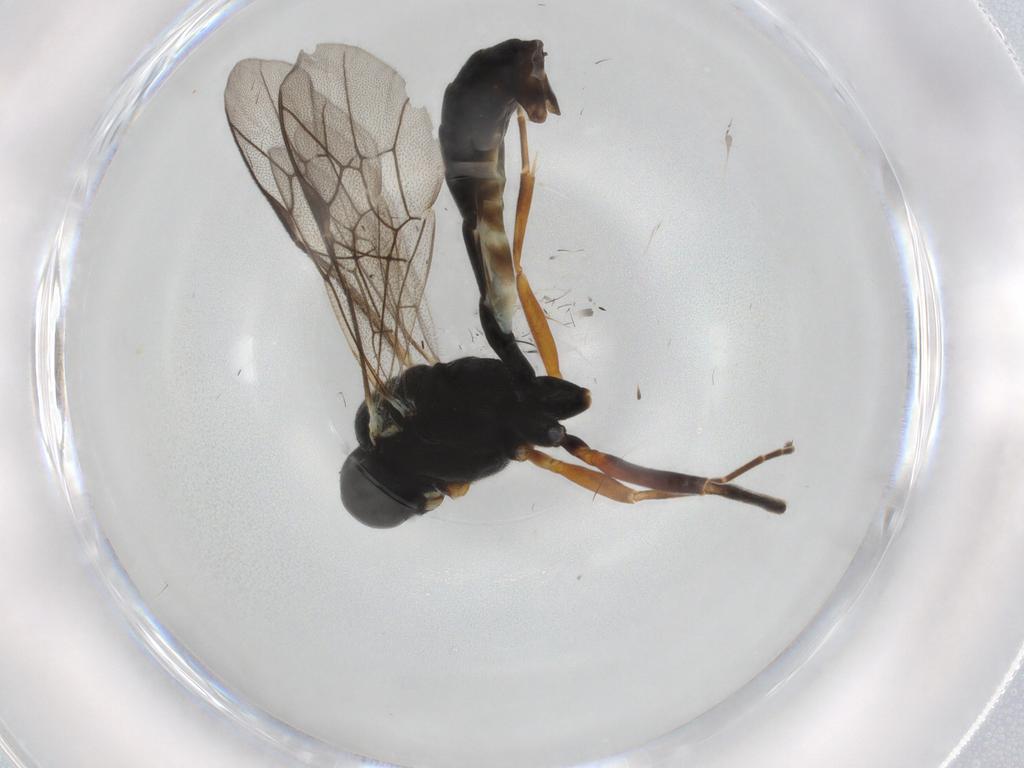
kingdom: Animalia
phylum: Arthropoda
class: Insecta
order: Hymenoptera
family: Ichneumonidae
